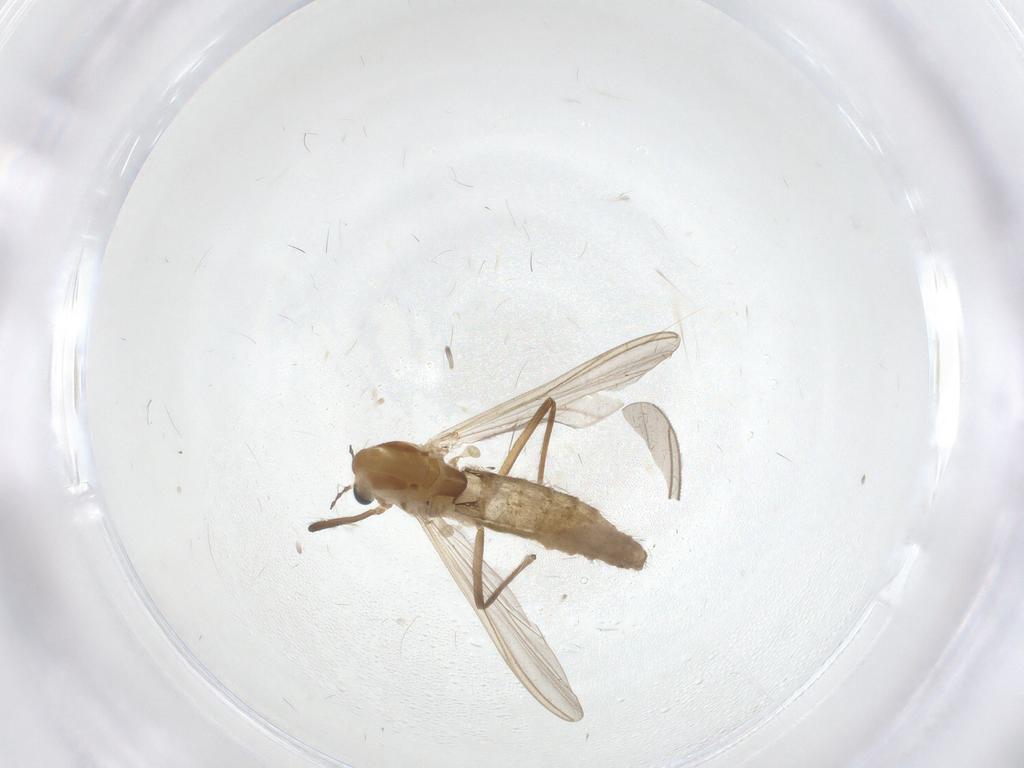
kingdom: Animalia
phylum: Arthropoda
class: Insecta
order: Diptera
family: Chironomidae
